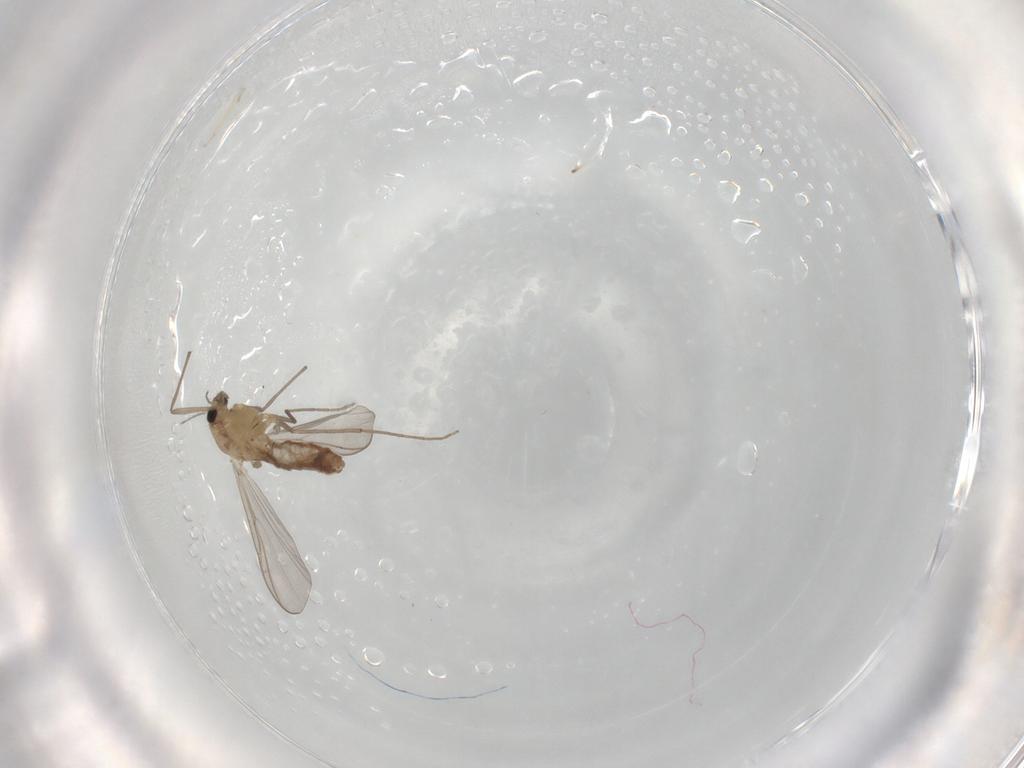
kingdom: Animalia
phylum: Arthropoda
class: Insecta
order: Diptera
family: Chironomidae
